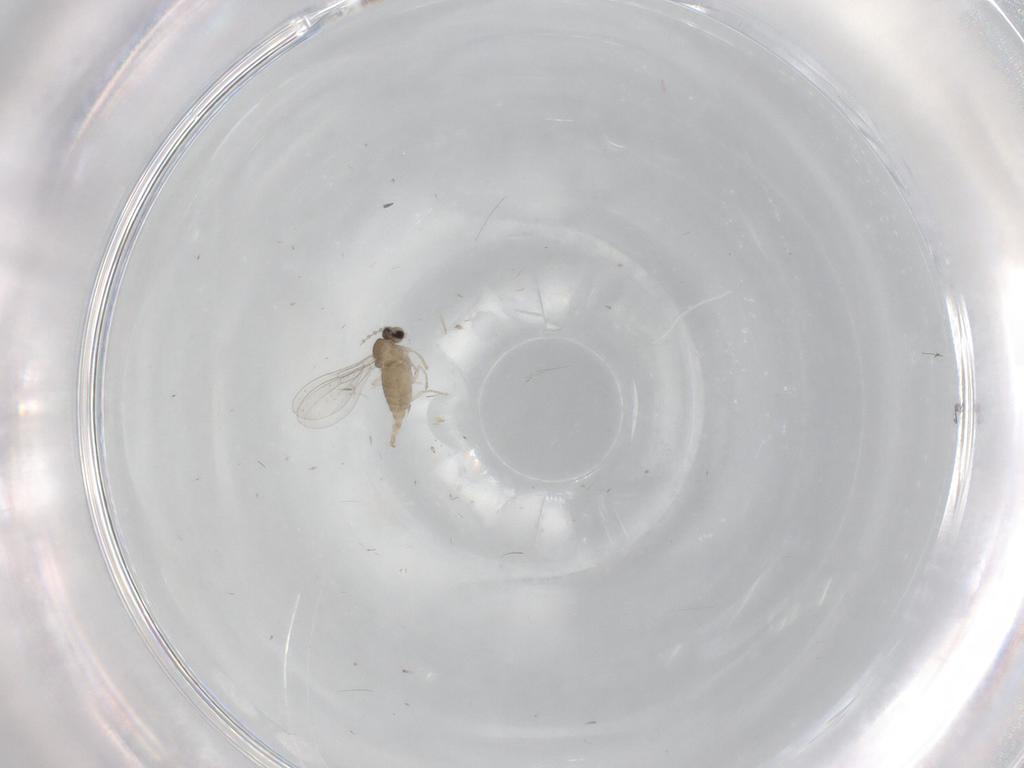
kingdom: Animalia
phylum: Arthropoda
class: Insecta
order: Diptera
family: Cecidomyiidae
